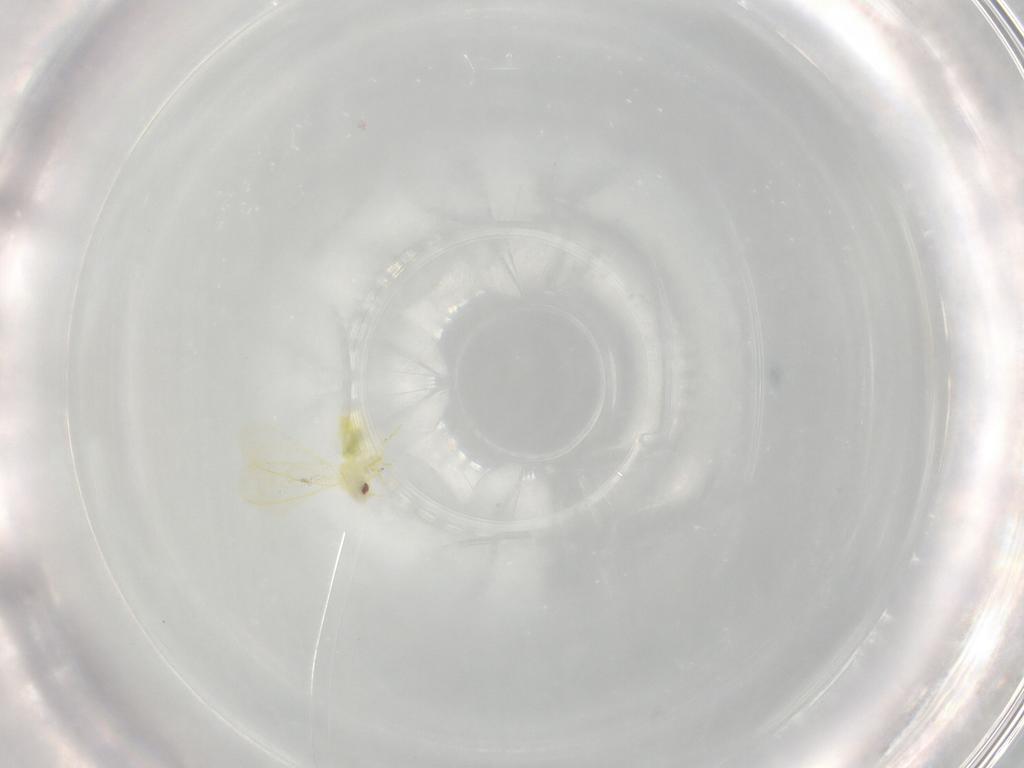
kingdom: Animalia
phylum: Arthropoda
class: Insecta
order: Hemiptera
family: Aleyrodidae
